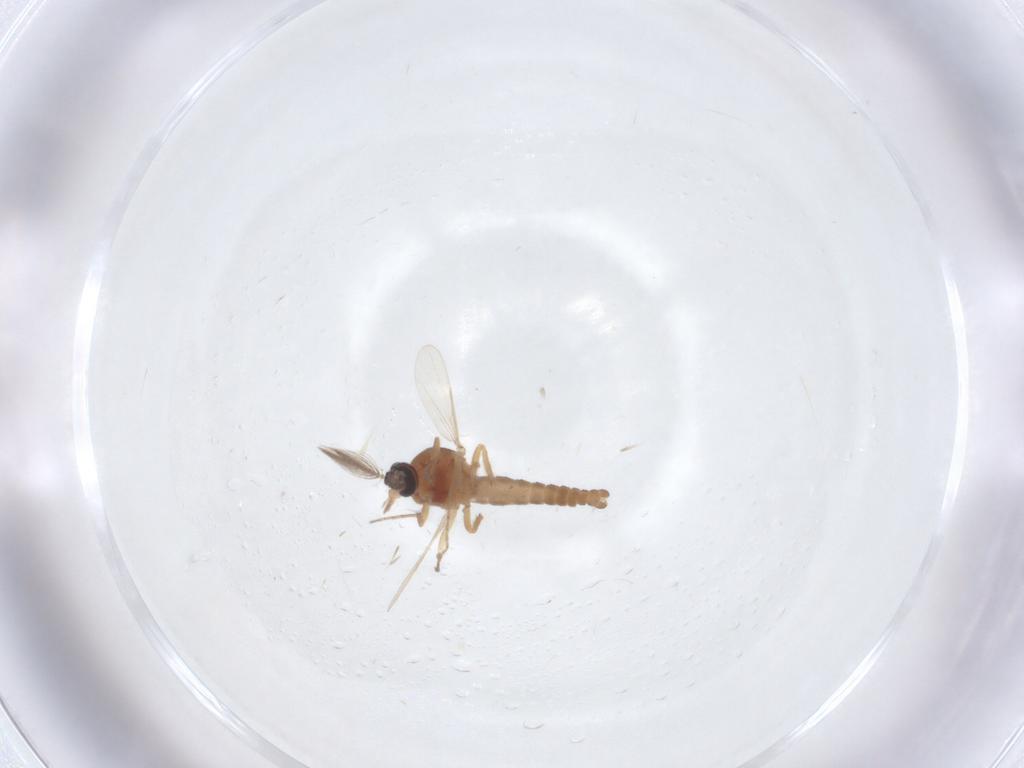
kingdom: Animalia
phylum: Arthropoda
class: Insecta
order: Diptera
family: Ceratopogonidae
